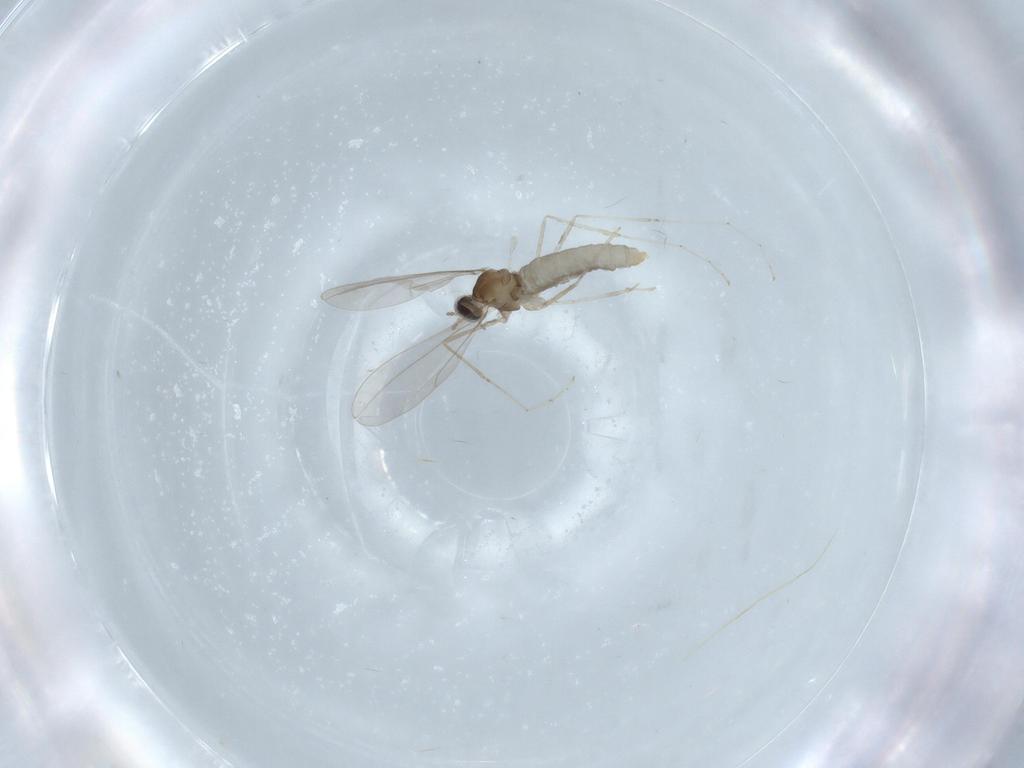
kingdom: Animalia
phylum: Arthropoda
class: Insecta
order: Diptera
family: Cecidomyiidae
